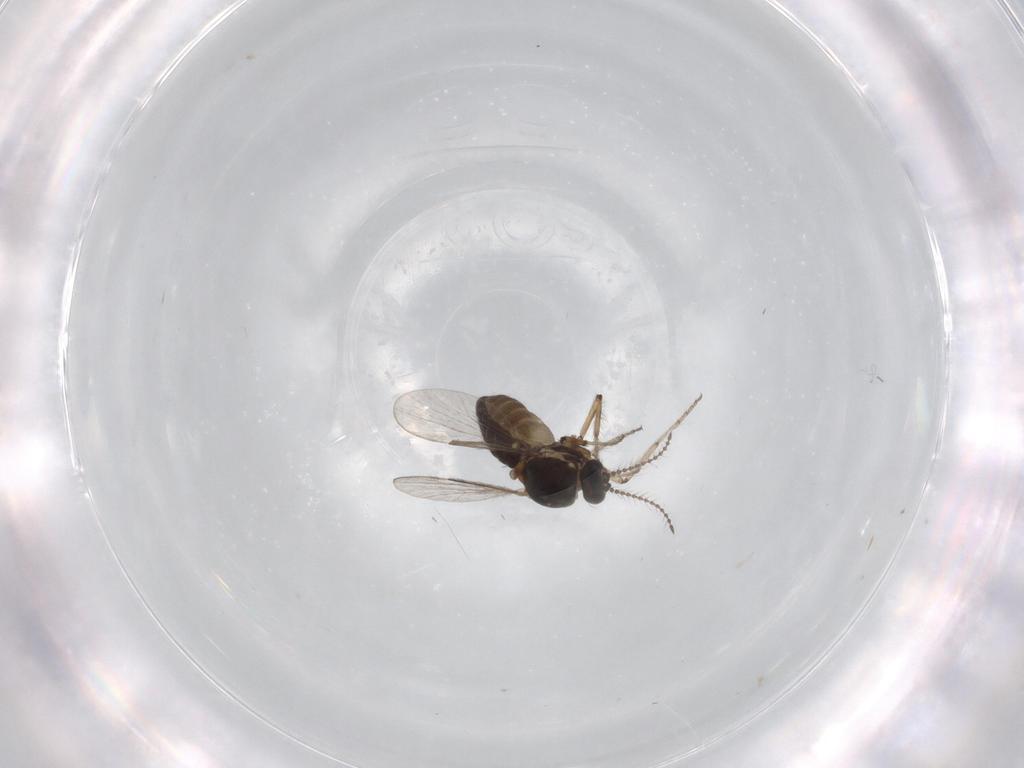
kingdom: Animalia
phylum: Arthropoda
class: Insecta
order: Diptera
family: Ceratopogonidae
